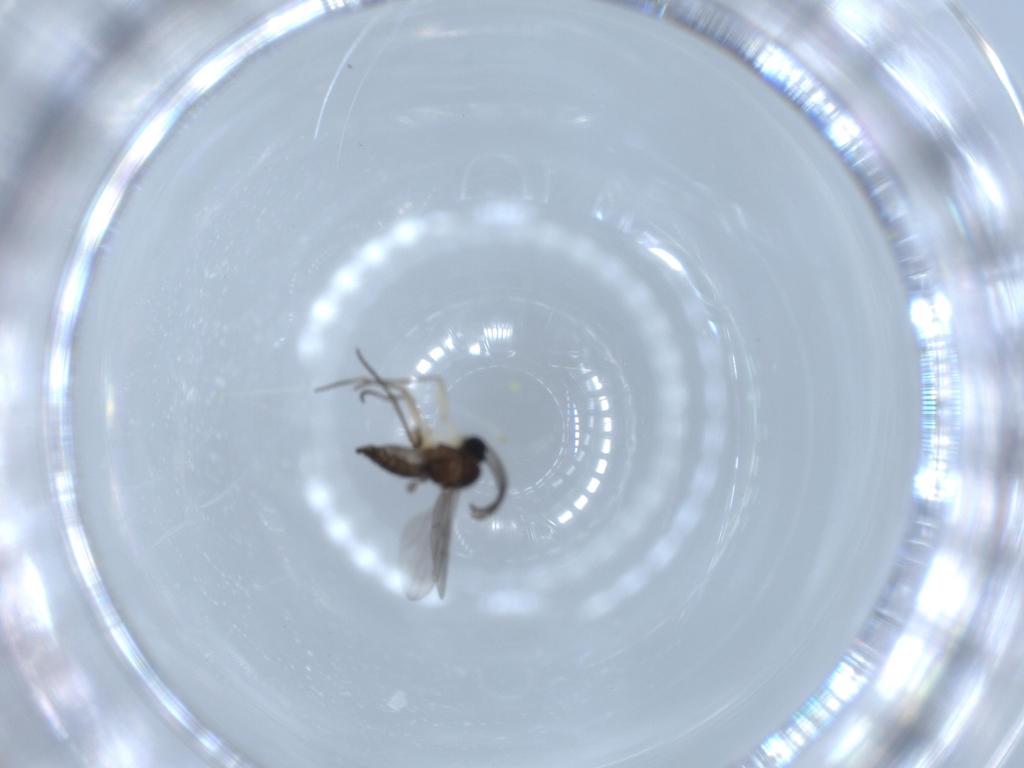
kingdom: Animalia
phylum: Arthropoda
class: Insecta
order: Diptera
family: Sciaridae
